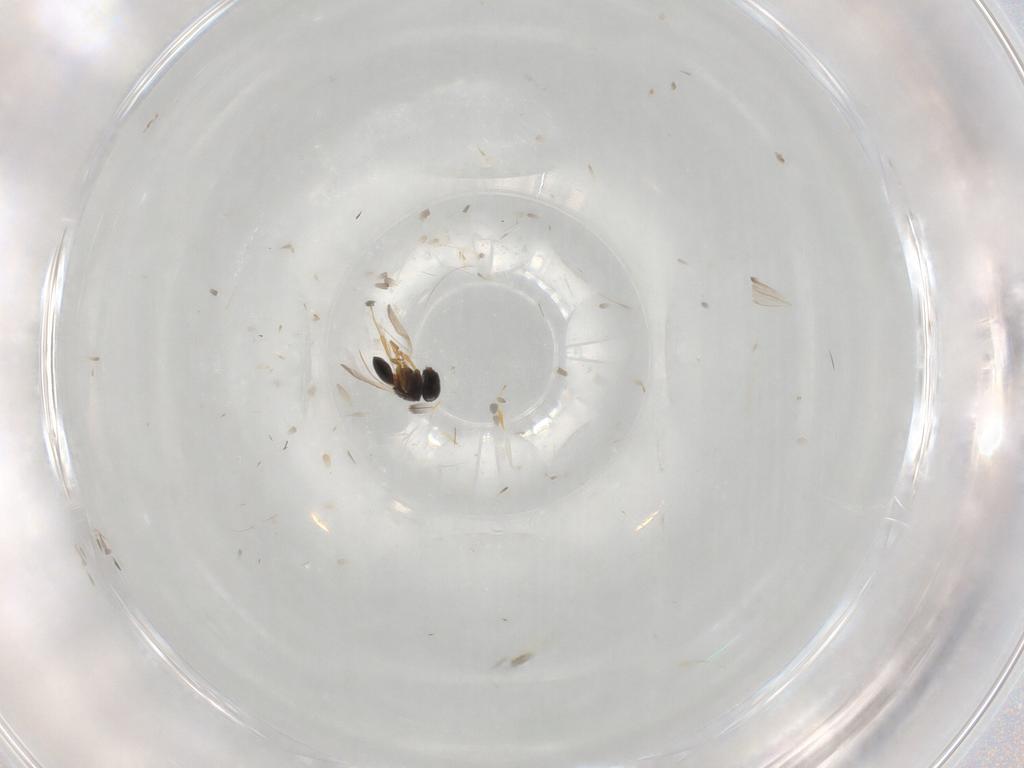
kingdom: Animalia
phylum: Arthropoda
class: Insecta
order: Hymenoptera
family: Scelionidae
